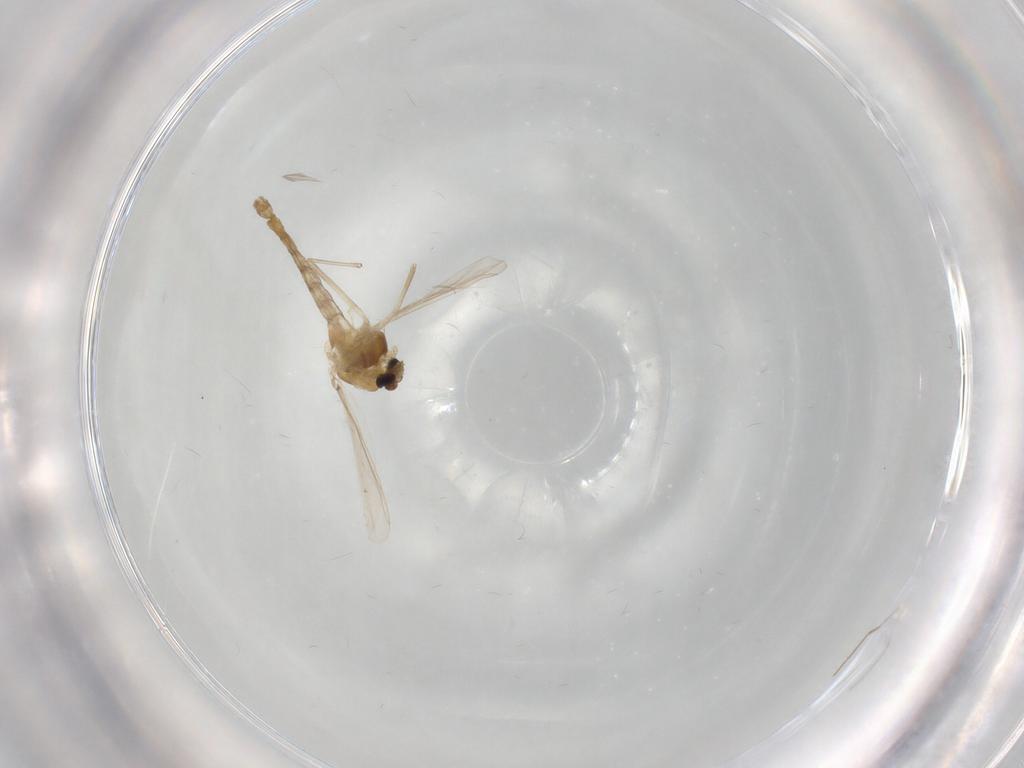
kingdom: Animalia
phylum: Arthropoda
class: Insecta
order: Diptera
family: Chironomidae
